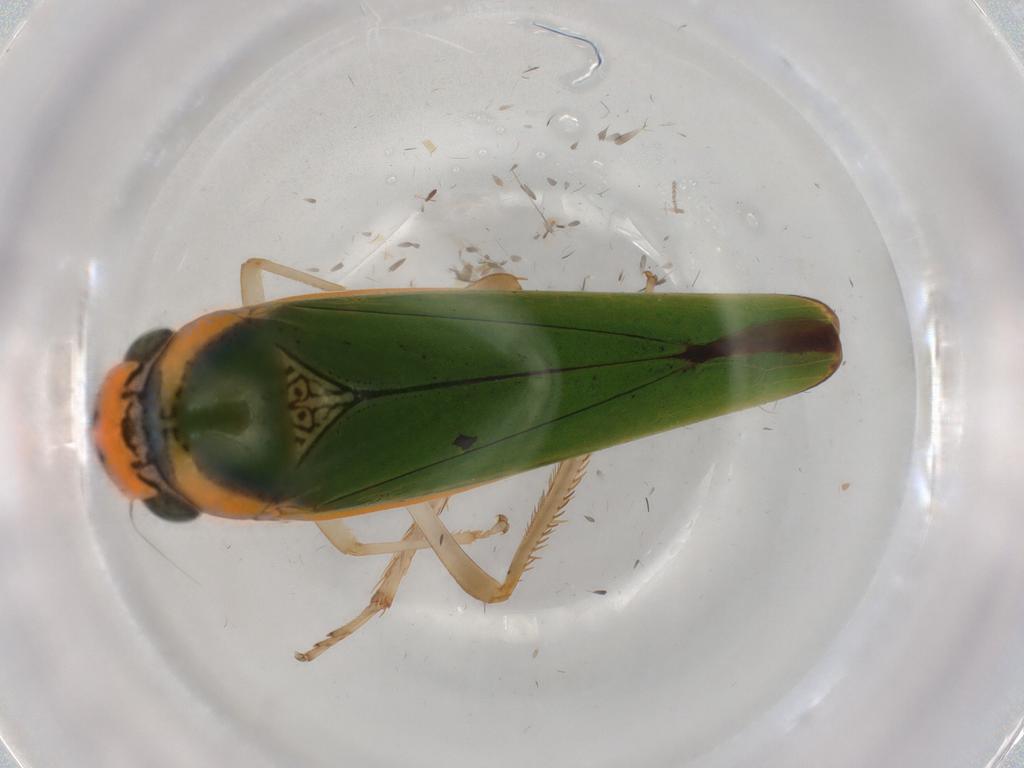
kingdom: Animalia
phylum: Arthropoda
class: Insecta
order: Hemiptera
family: Cicadellidae
